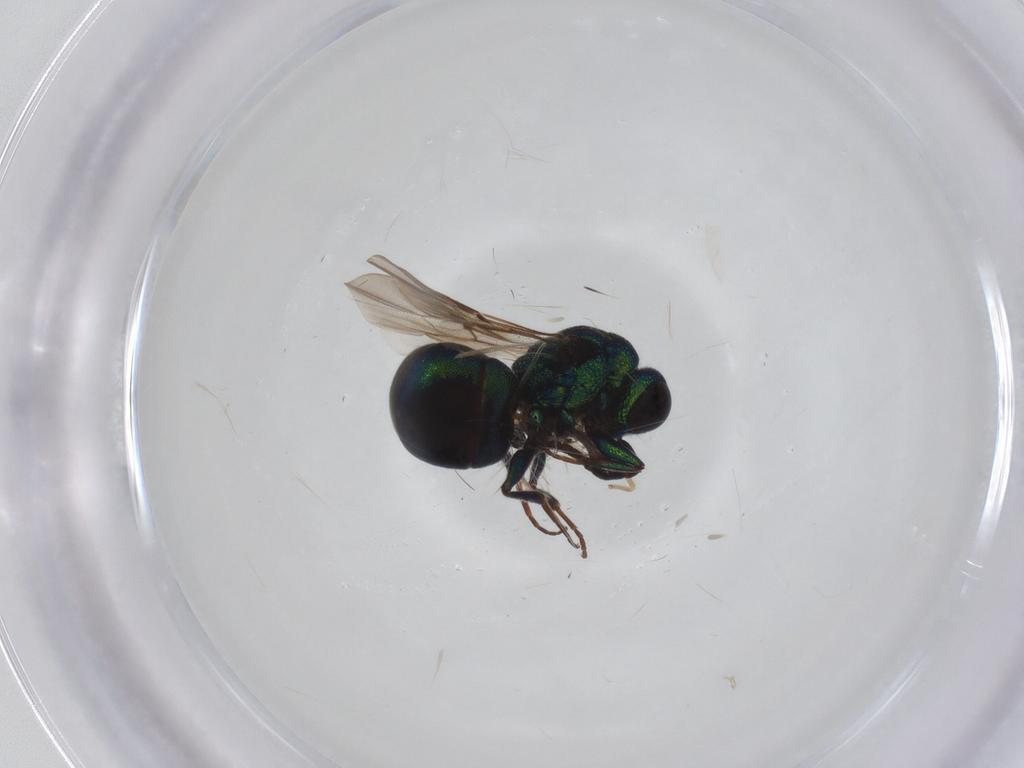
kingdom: Animalia
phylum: Arthropoda
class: Insecta
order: Hymenoptera
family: Chrysididae
